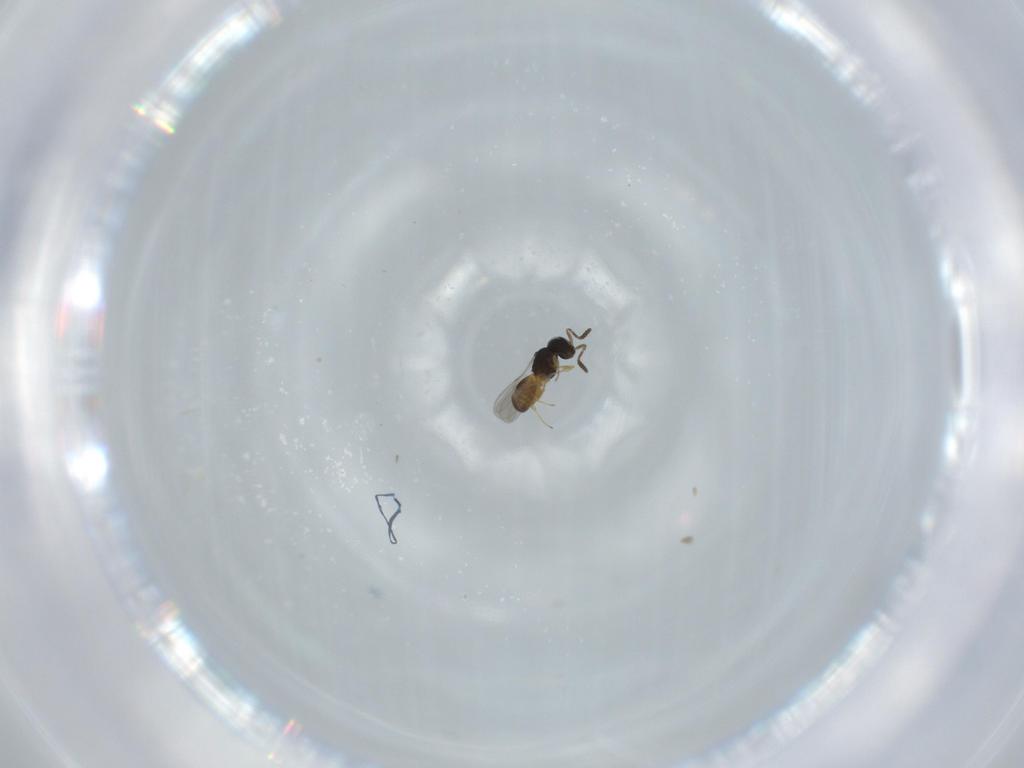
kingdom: Animalia
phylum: Arthropoda
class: Insecta
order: Hymenoptera
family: Scelionidae
